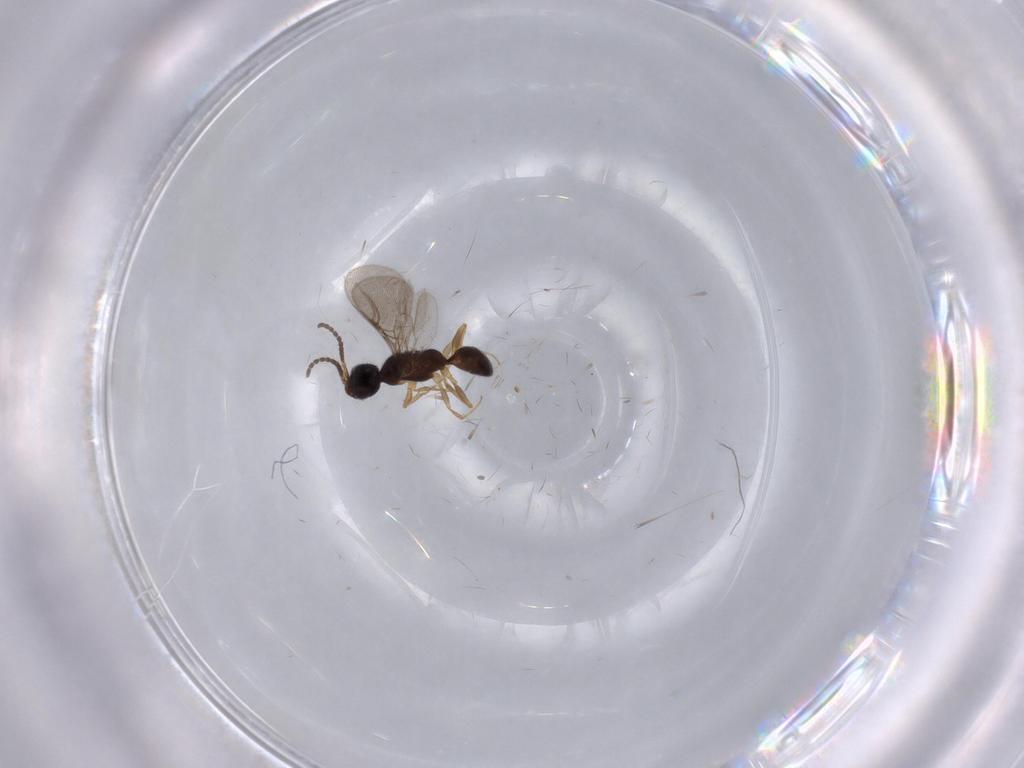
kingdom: Animalia
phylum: Arthropoda
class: Insecta
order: Hymenoptera
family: Bethylidae
